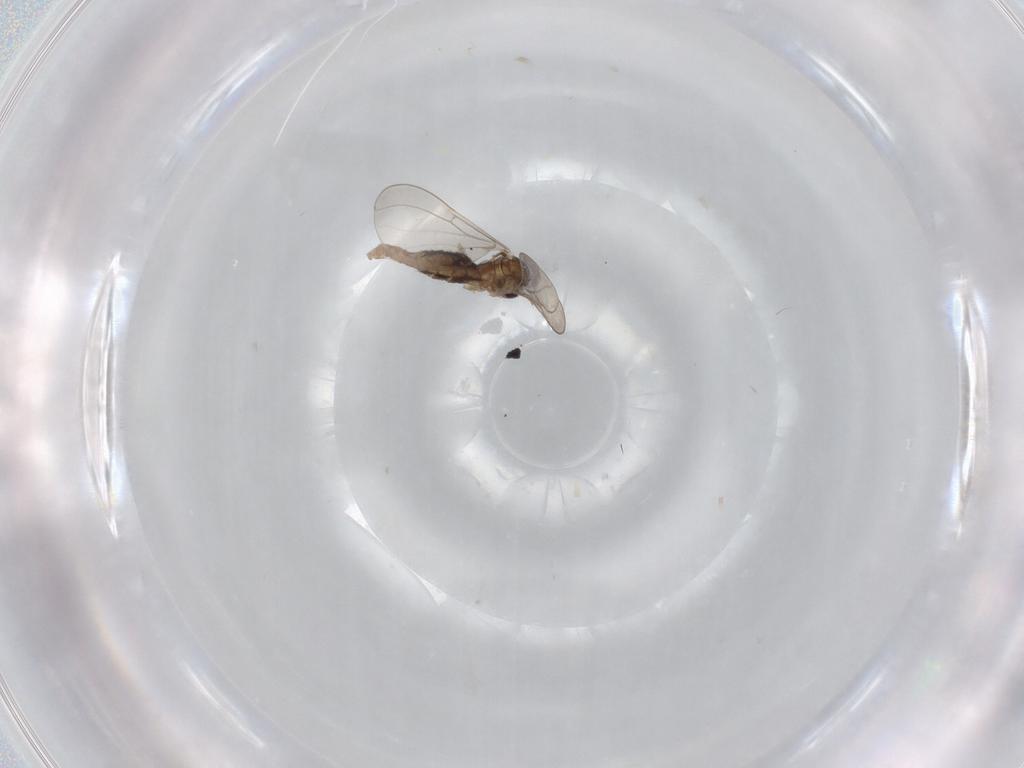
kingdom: Animalia
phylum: Arthropoda
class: Insecta
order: Diptera
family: Chironomidae
